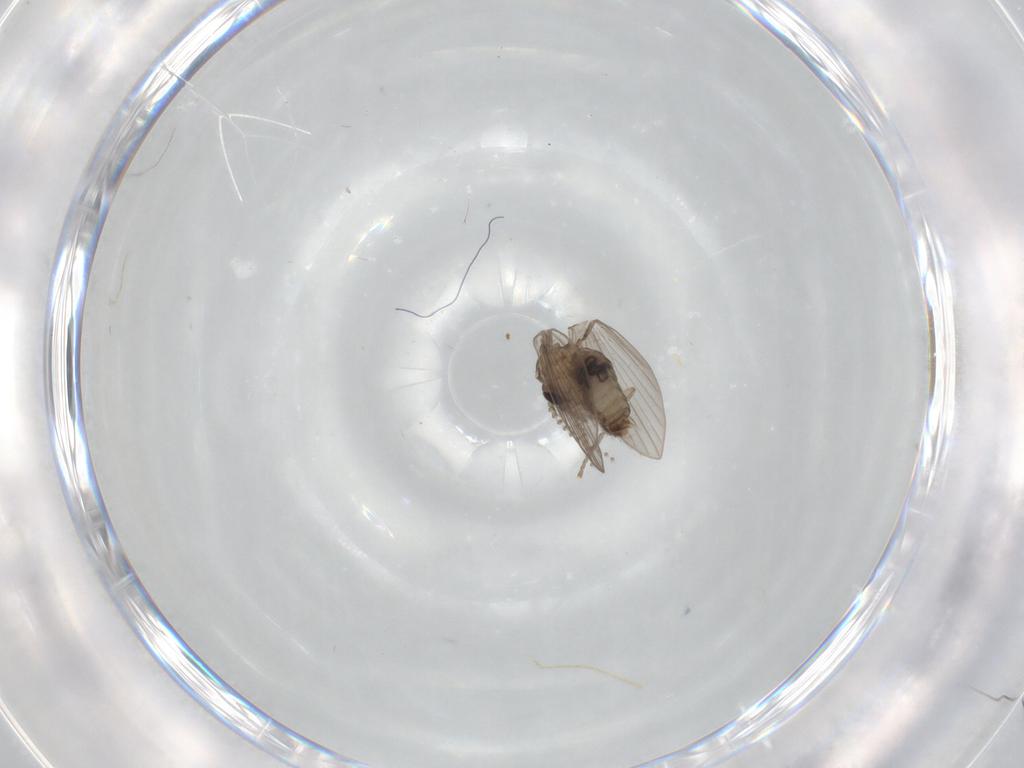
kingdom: Animalia
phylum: Arthropoda
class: Insecta
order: Diptera
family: Psychodidae
